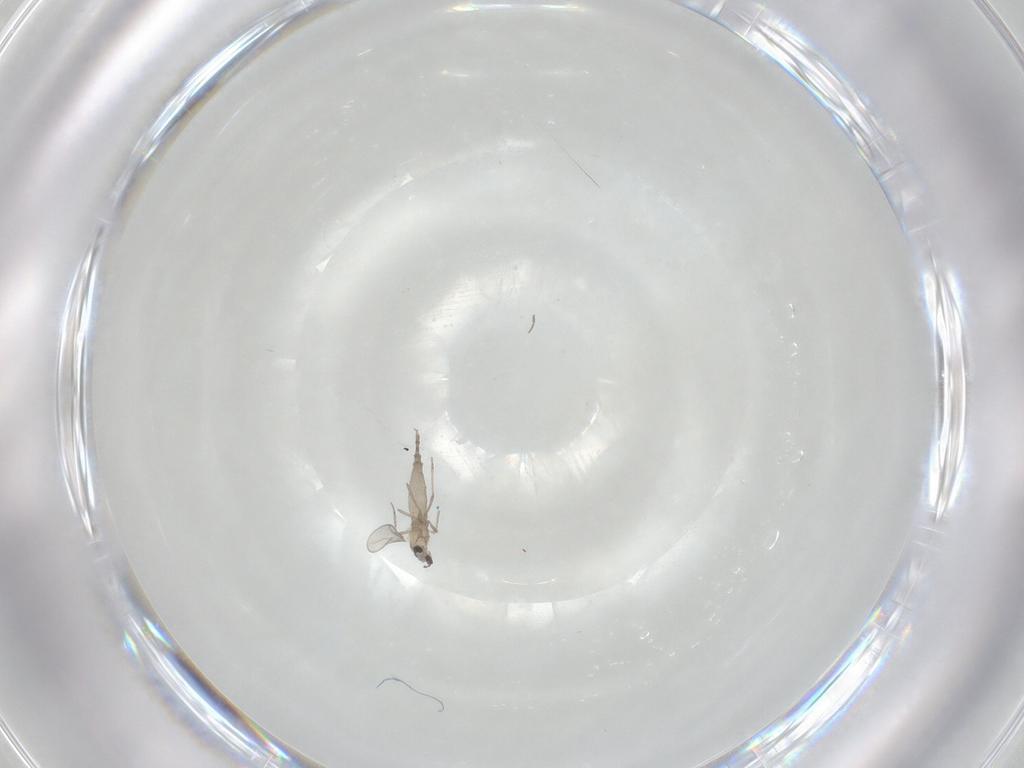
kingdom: Animalia
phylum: Arthropoda
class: Insecta
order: Diptera
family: Cecidomyiidae
